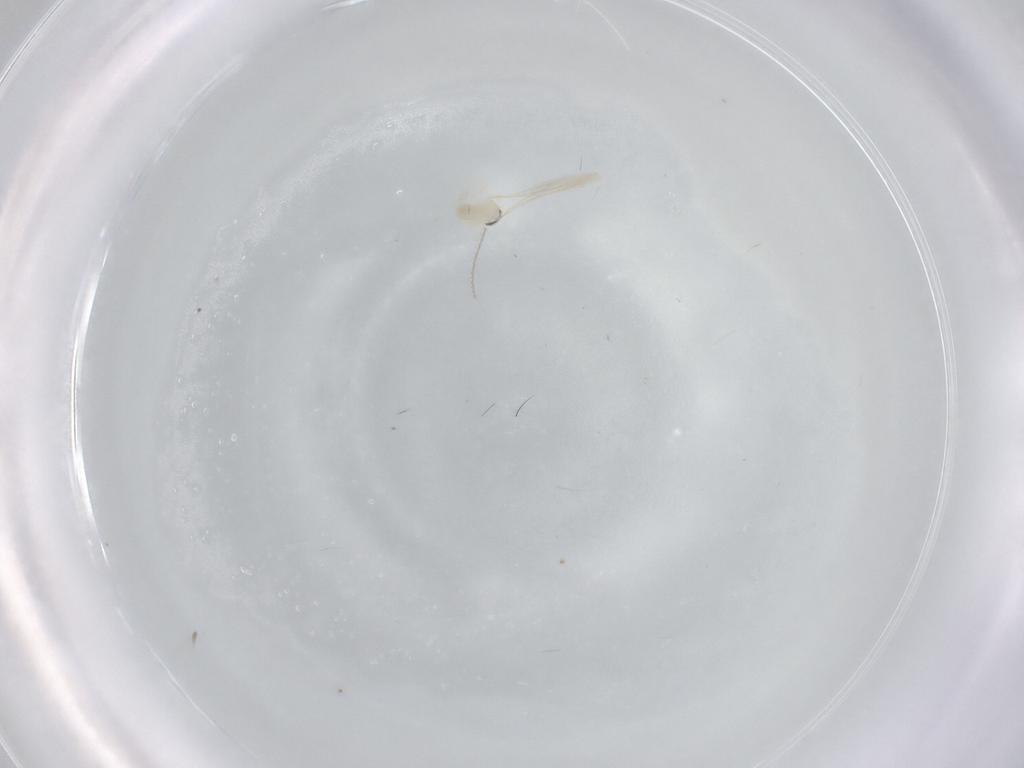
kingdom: Animalia
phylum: Arthropoda
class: Insecta
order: Diptera
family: Cecidomyiidae
